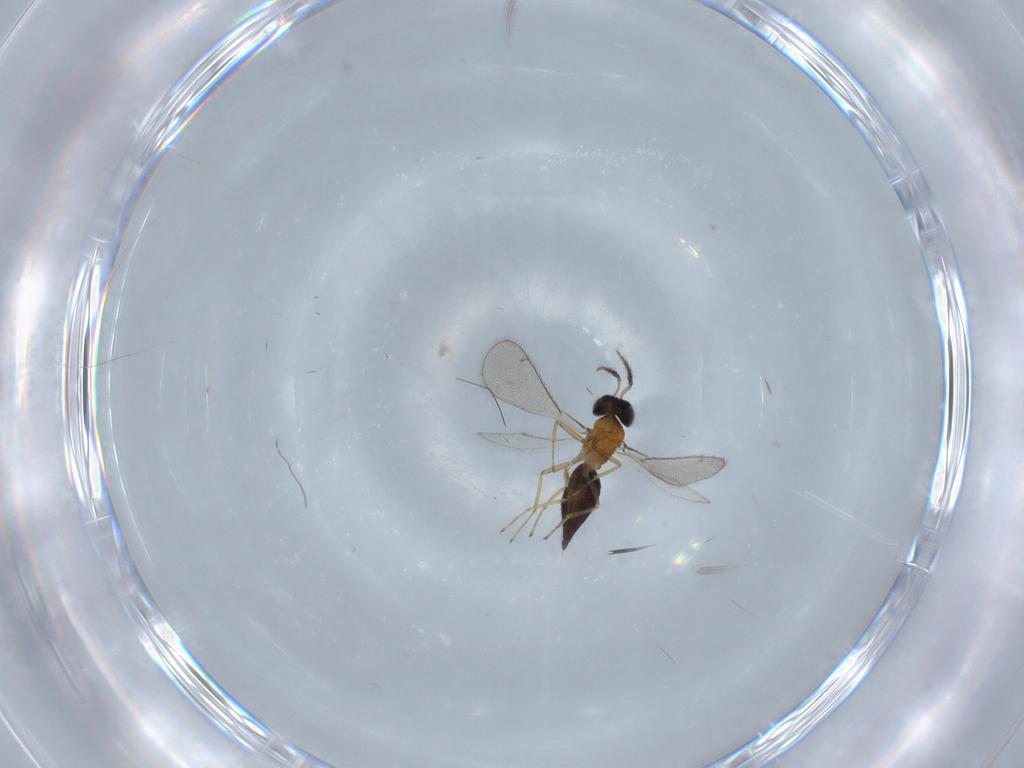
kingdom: Animalia
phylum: Arthropoda
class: Insecta
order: Hymenoptera
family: Eulophidae
